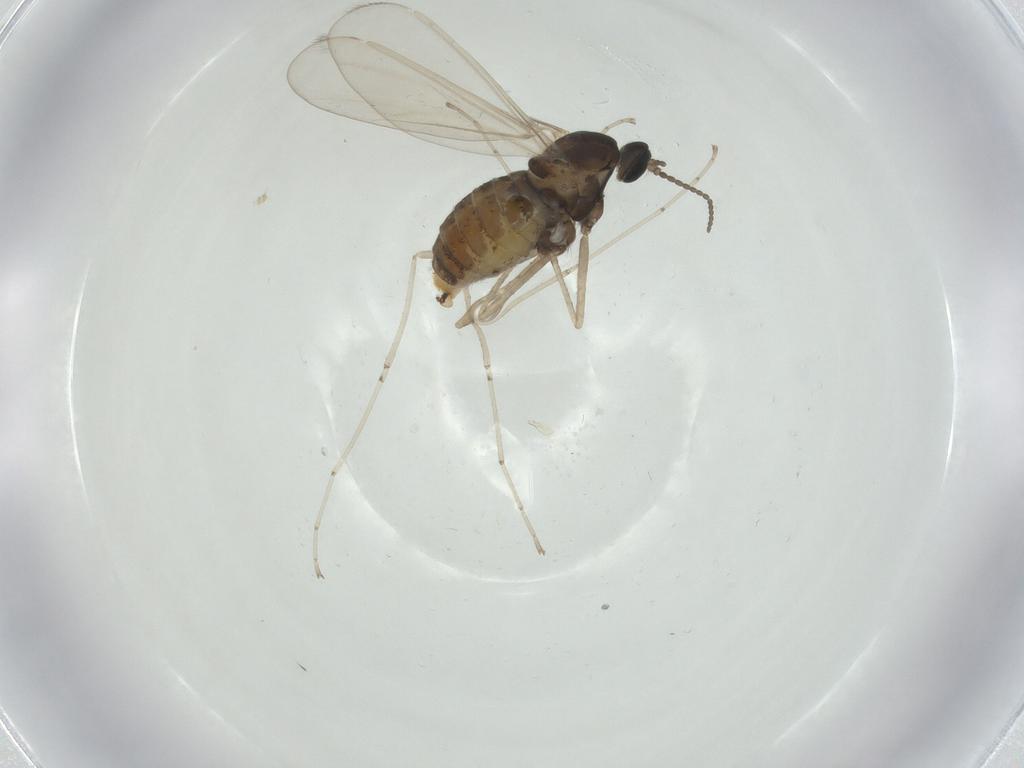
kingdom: Animalia
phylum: Arthropoda
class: Insecta
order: Diptera
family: Cecidomyiidae
